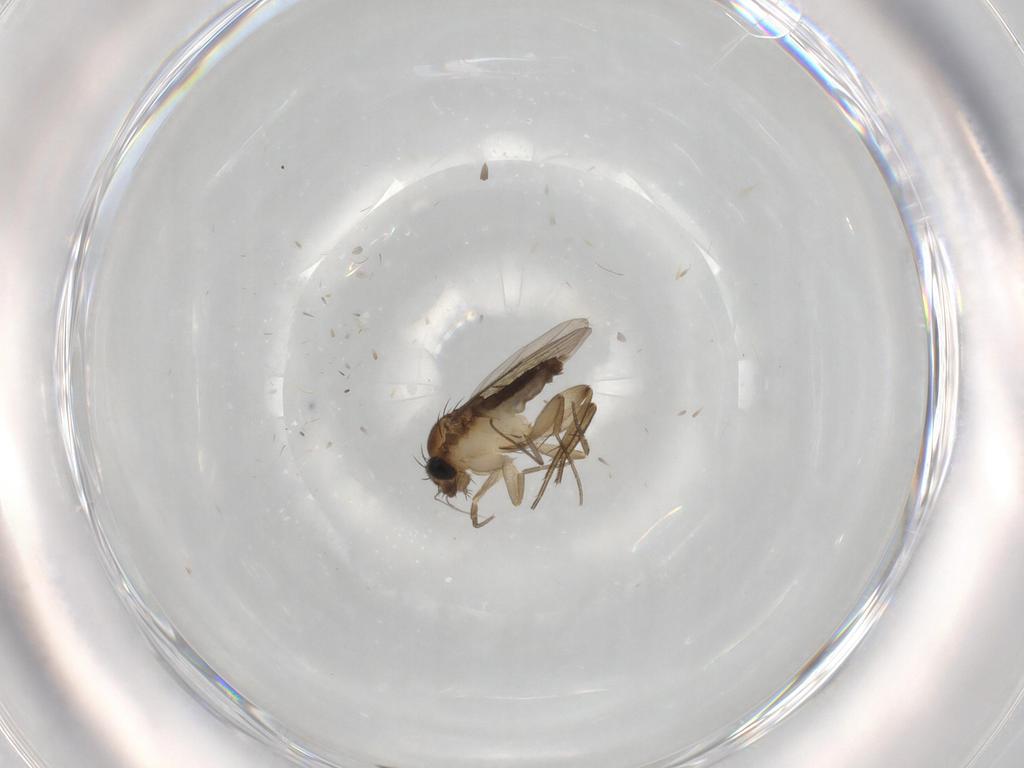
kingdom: Animalia
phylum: Arthropoda
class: Insecta
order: Diptera
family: Phoridae
